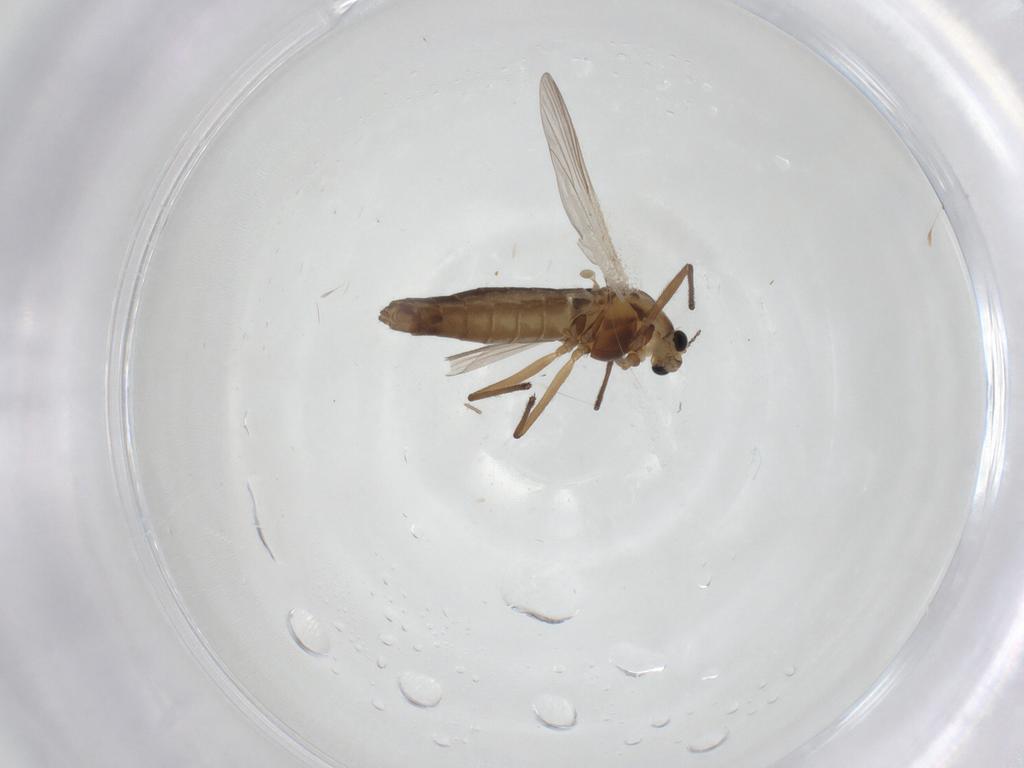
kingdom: Animalia
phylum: Arthropoda
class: Insecta
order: Diptera
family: Chironomidae
